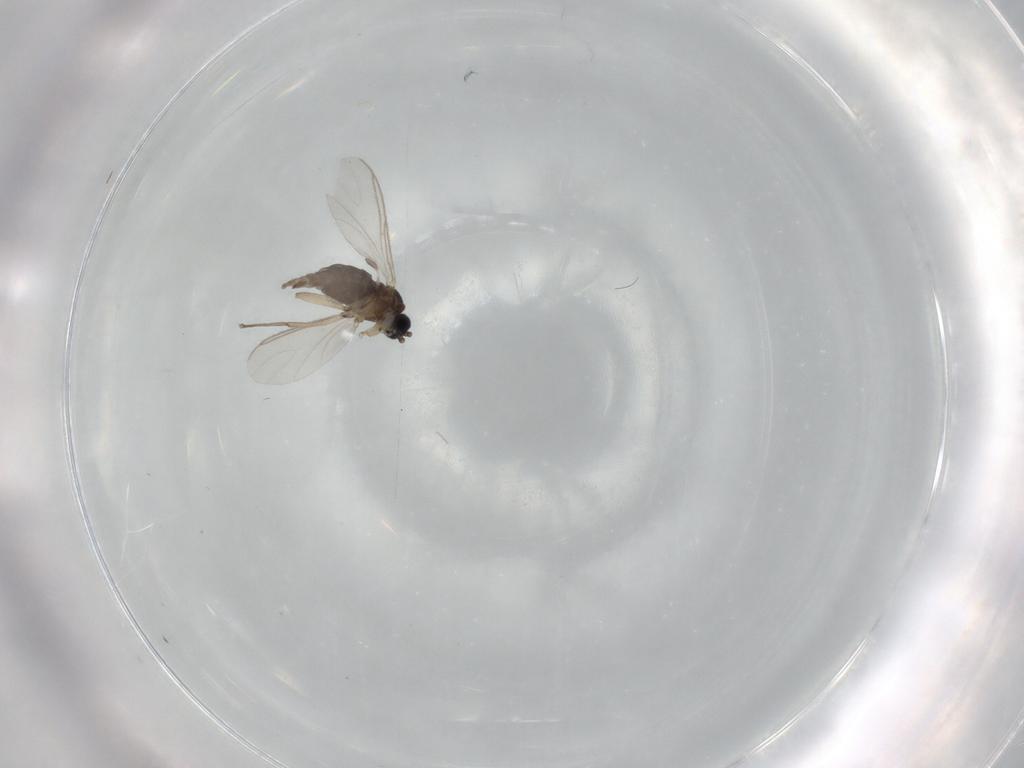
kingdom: Animalia
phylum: Arthropoda
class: Insecta
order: Diptera
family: Sciaridae
